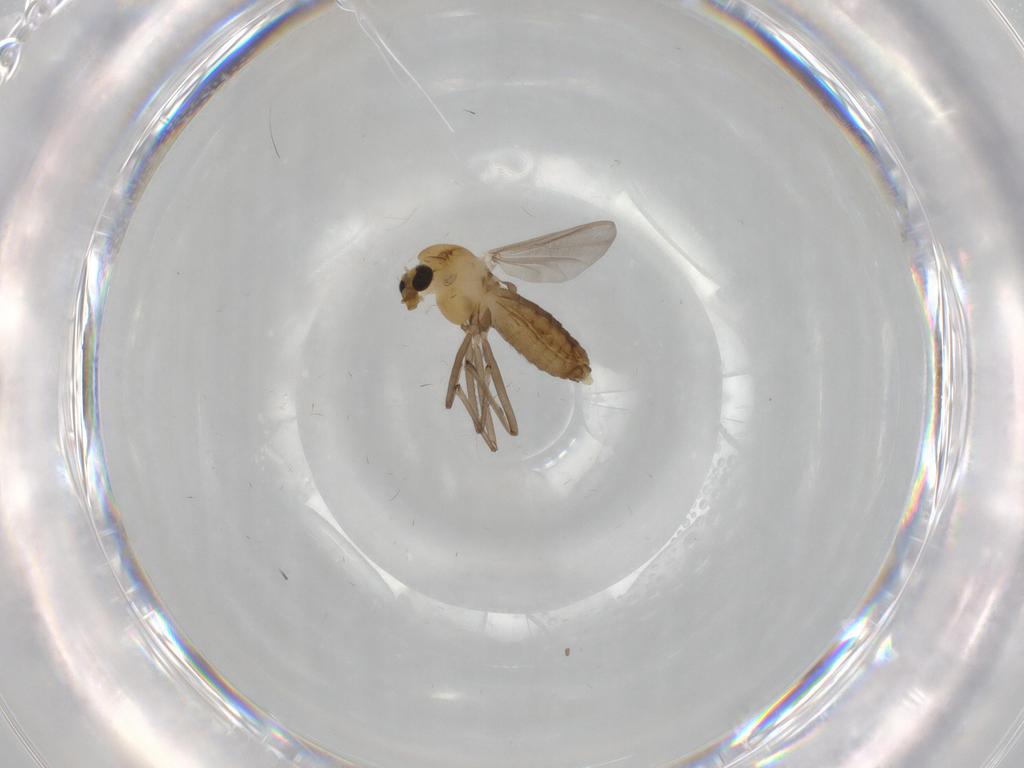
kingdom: Animalia
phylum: Arthropoda
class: Insecta
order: Diptera
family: Chironomidae
